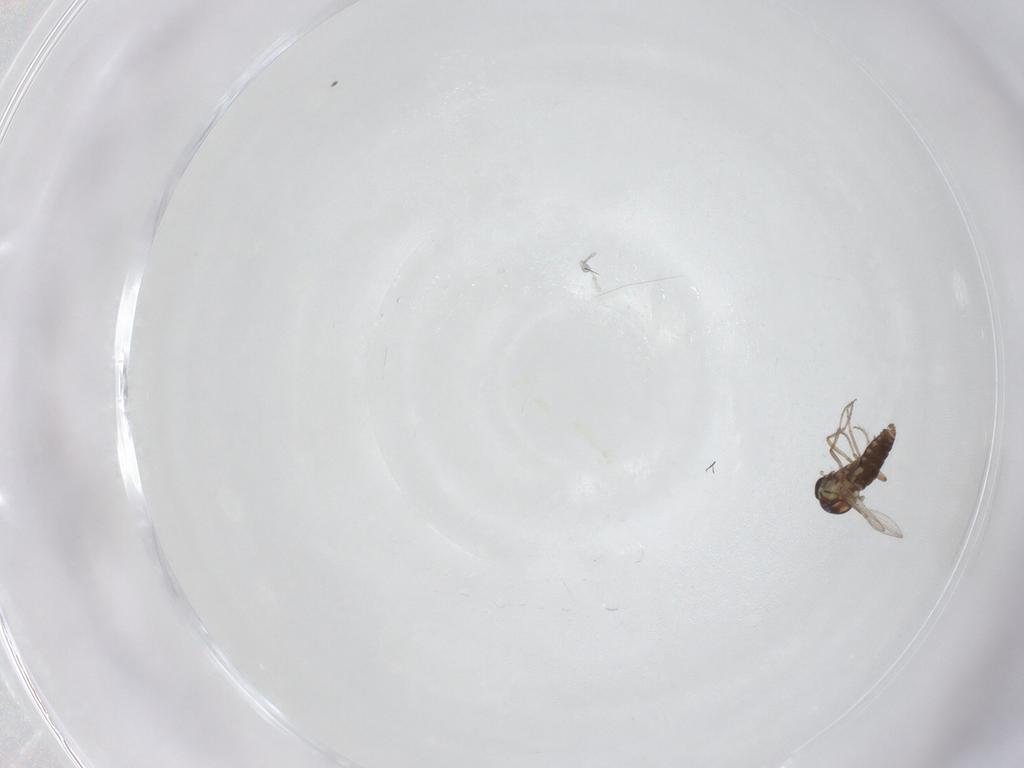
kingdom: Animalia
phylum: Arthropoda
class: Insecta
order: Diptera
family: Ceratopogonidae
